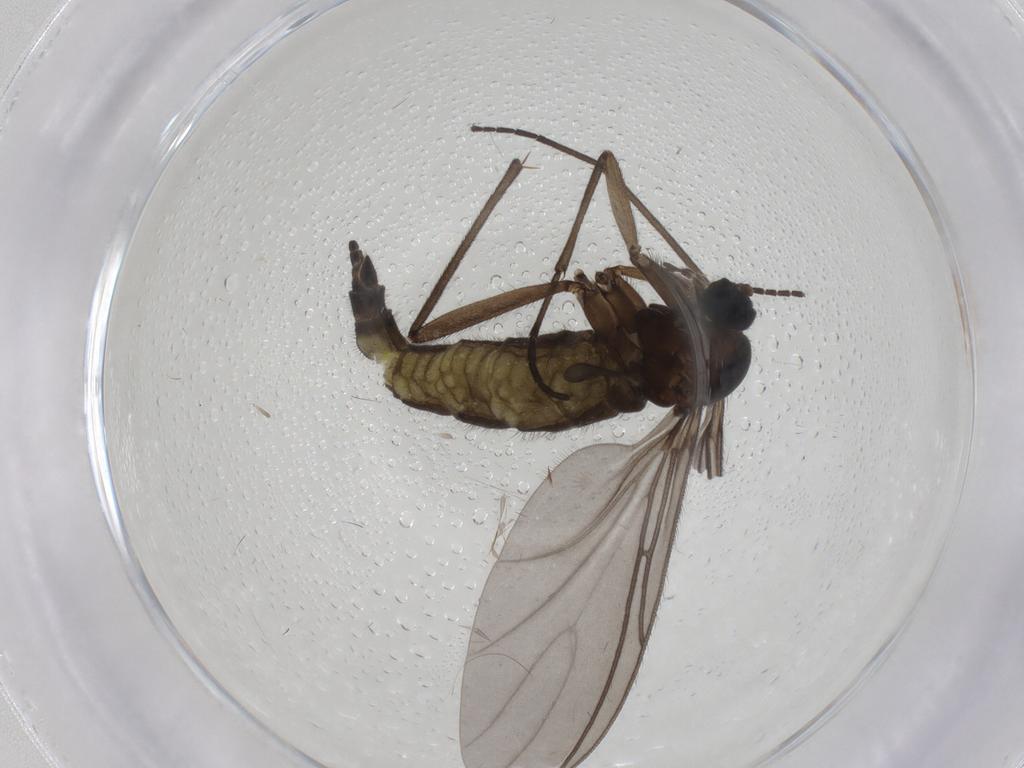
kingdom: Animalia
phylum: Arthropoda
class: Insecta
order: Diptera
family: Sciaridae
